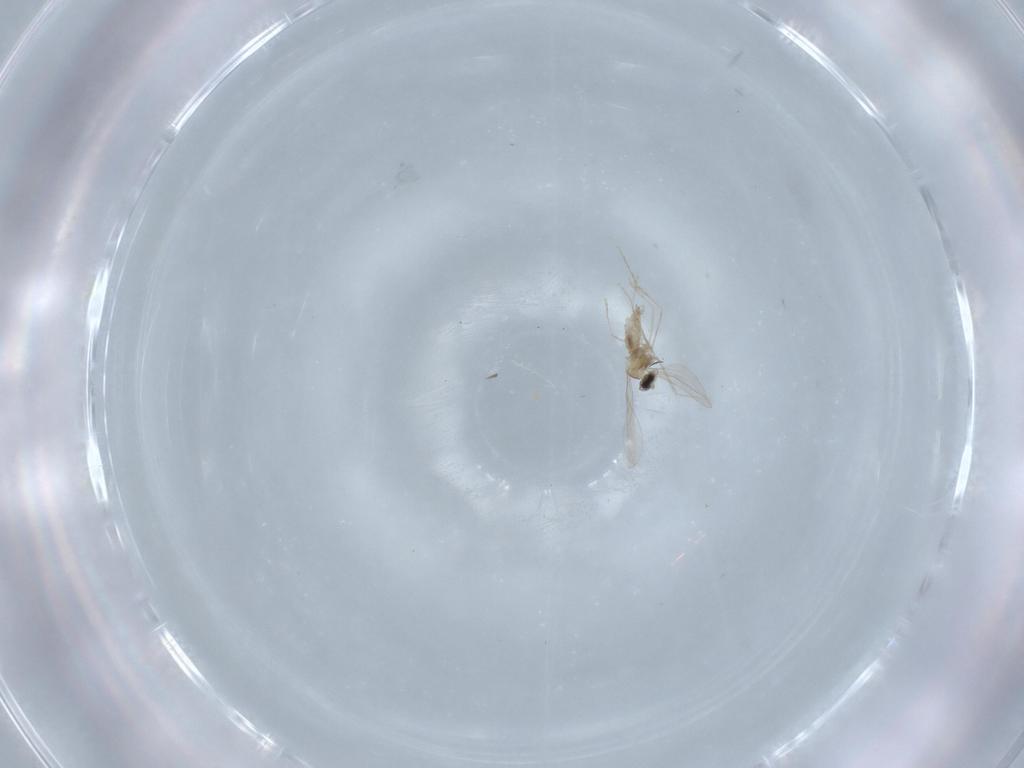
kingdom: Animalia
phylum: Arthropoda
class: Insecta
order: Diptera
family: Cecidomyiidae
